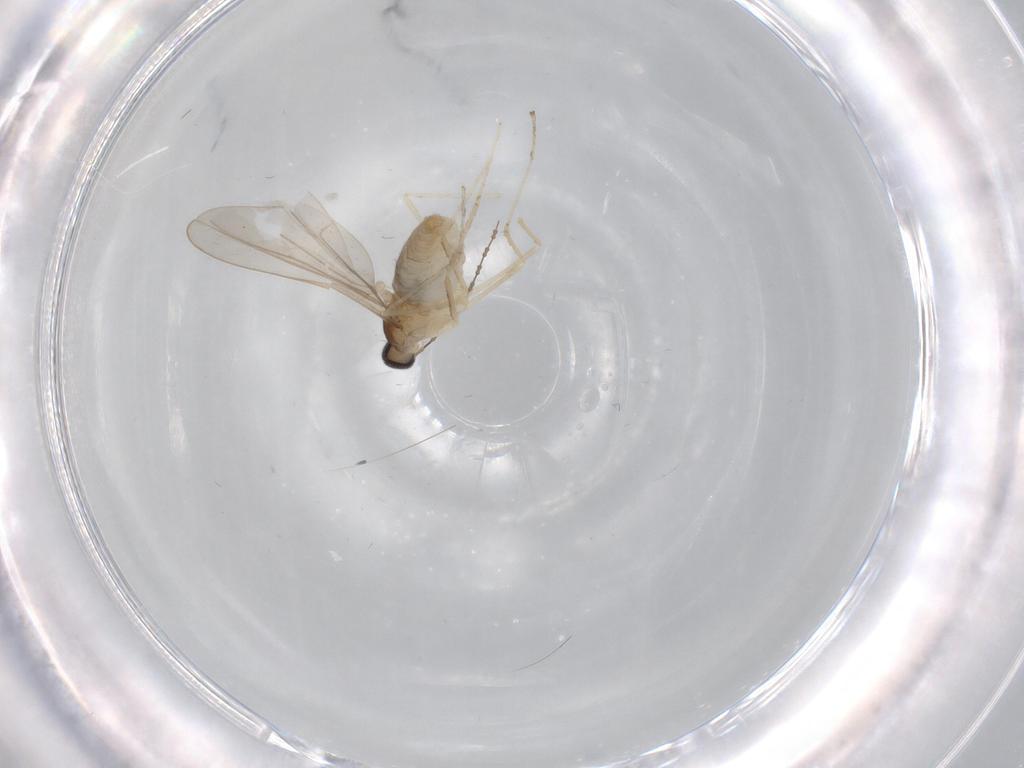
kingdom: Animalia
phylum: Arthropoda
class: Insecta
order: Diptera
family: Cecidomyiidae
